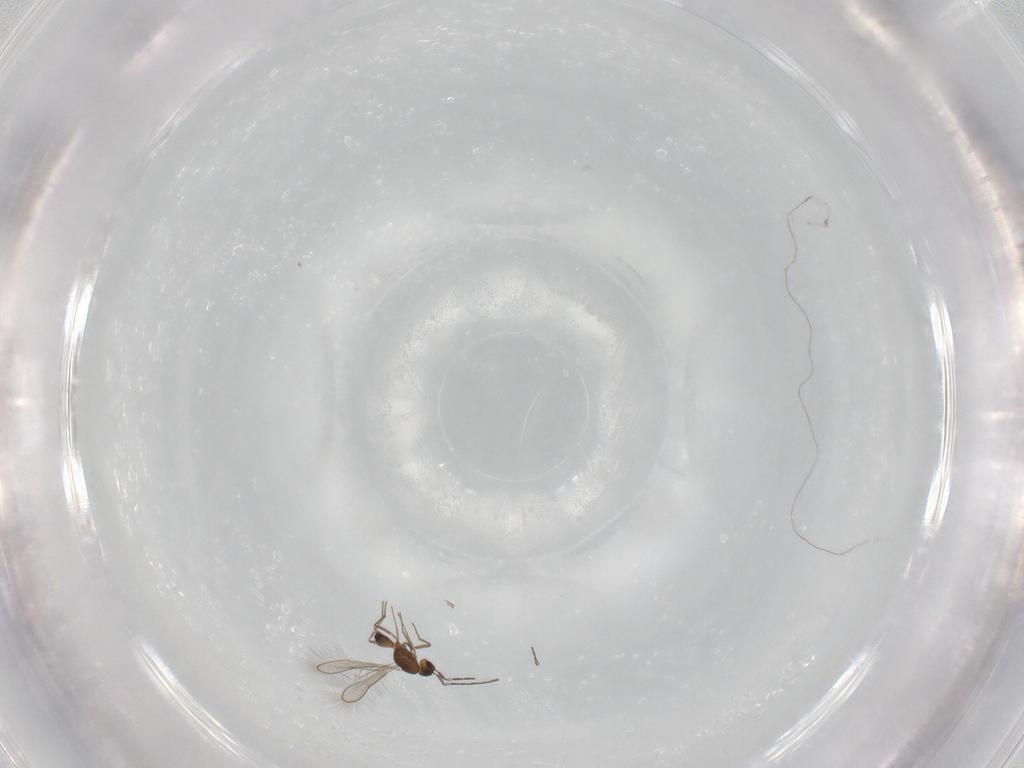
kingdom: Animalia
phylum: Arthropoda
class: Insecta
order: Hymenoptera
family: Mymaridae
